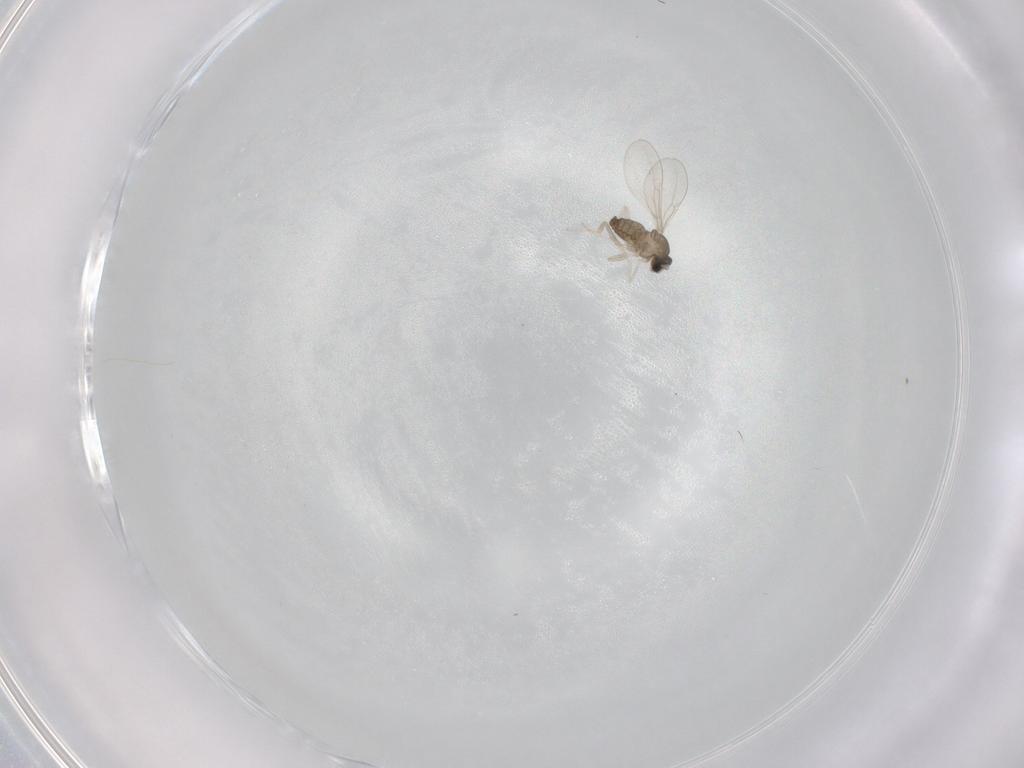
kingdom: Animalia
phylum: Arthropoda
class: Insecta
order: Diptera
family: Cecidomyiidae
